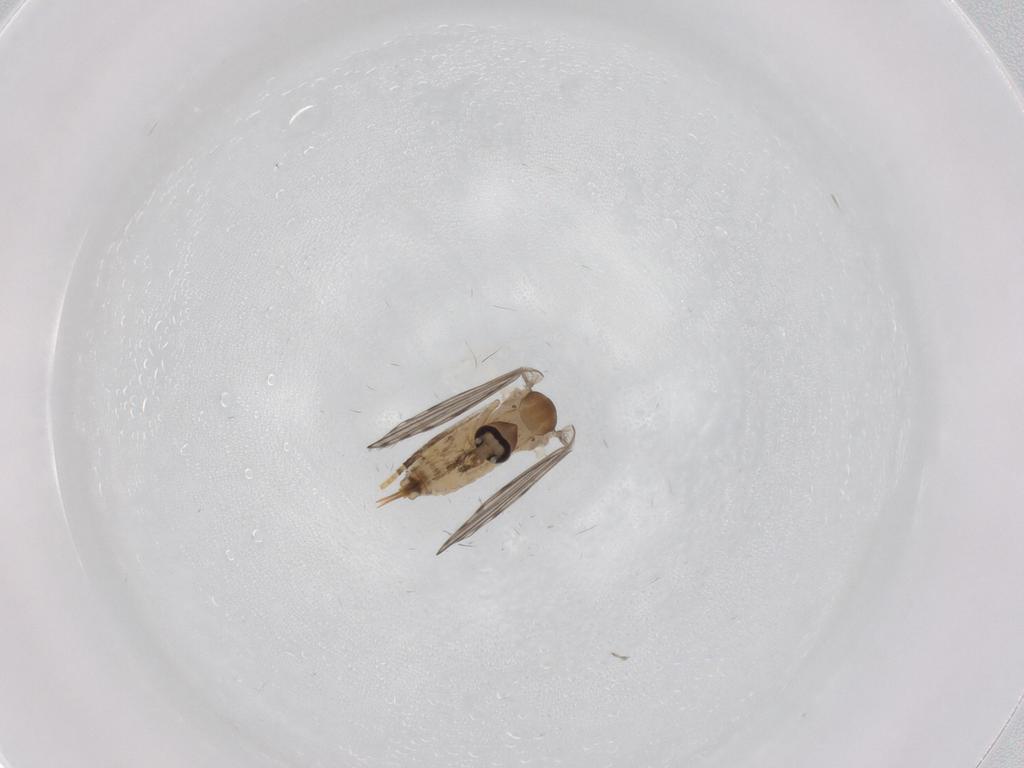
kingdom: Animalia
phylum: Arthropoda
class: Insecta
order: Diptera
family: Psychodidae
